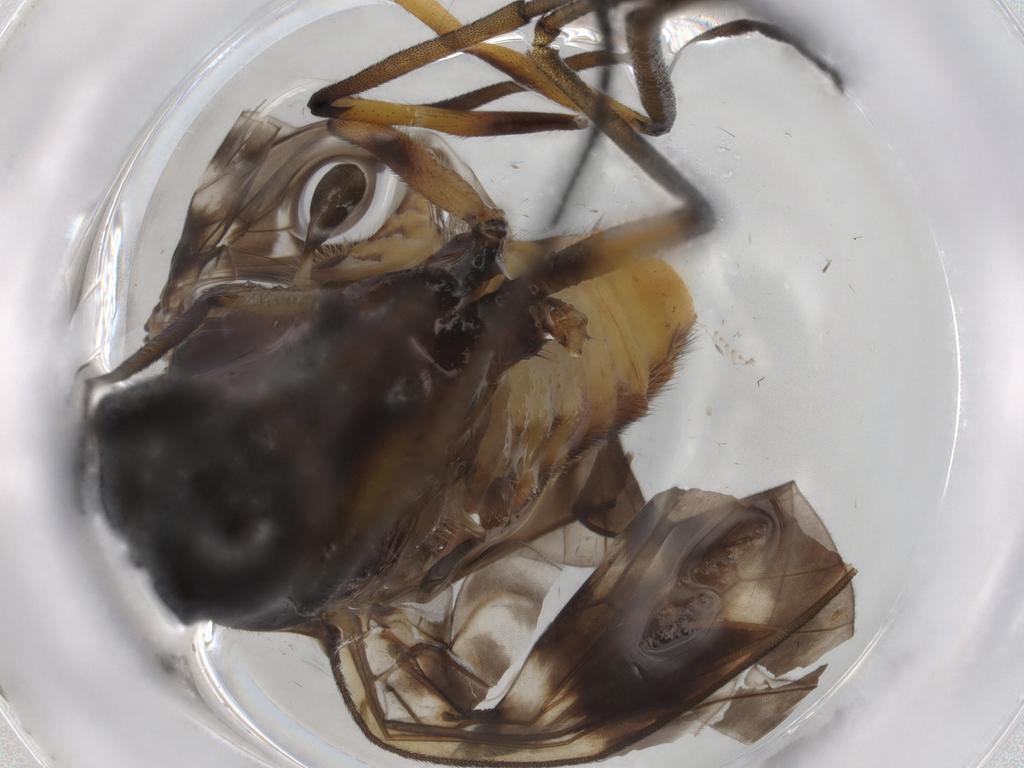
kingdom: Animalia
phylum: Arthropoda
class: Insecta
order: Diptera
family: Athericidae
